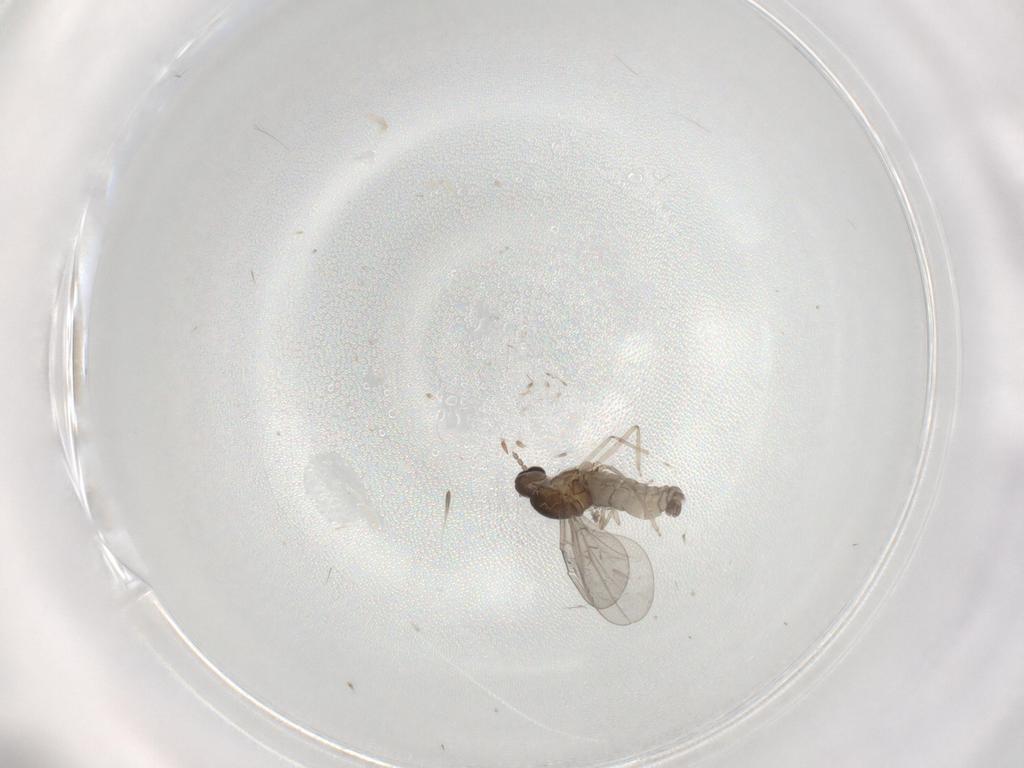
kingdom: Animalia
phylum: Arthropoda
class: Insecta
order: Diptera
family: Cecidomyiidae
